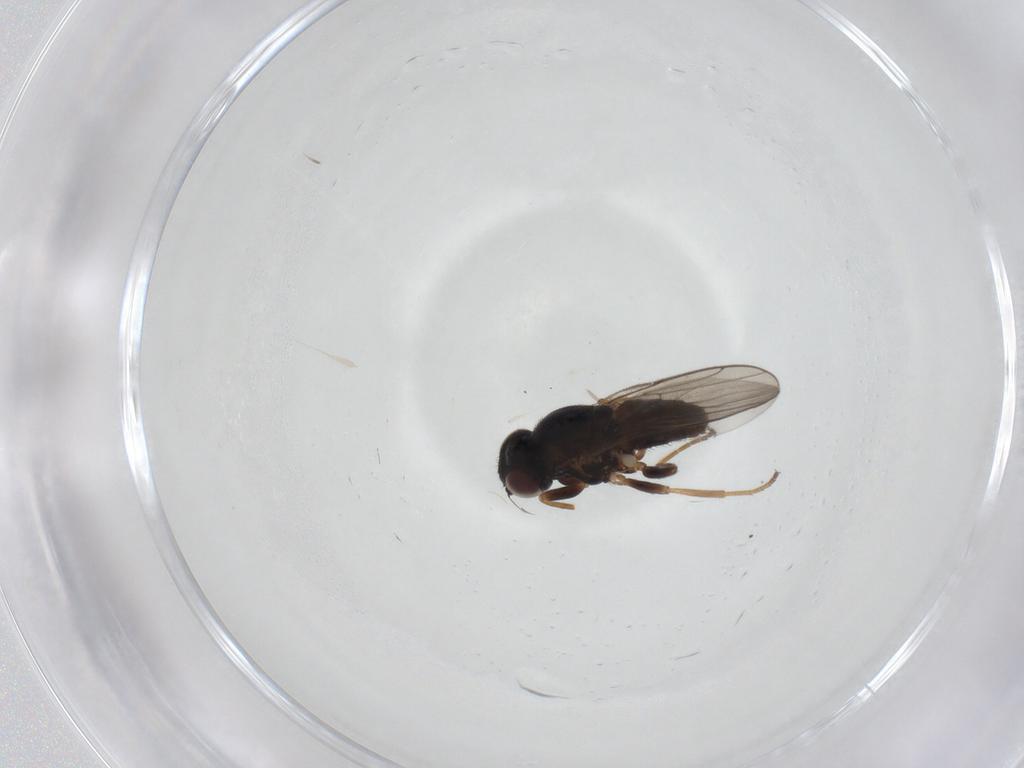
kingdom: Animalia
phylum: Arthropoda
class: Insecta
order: Diptera
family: Chloropidae
